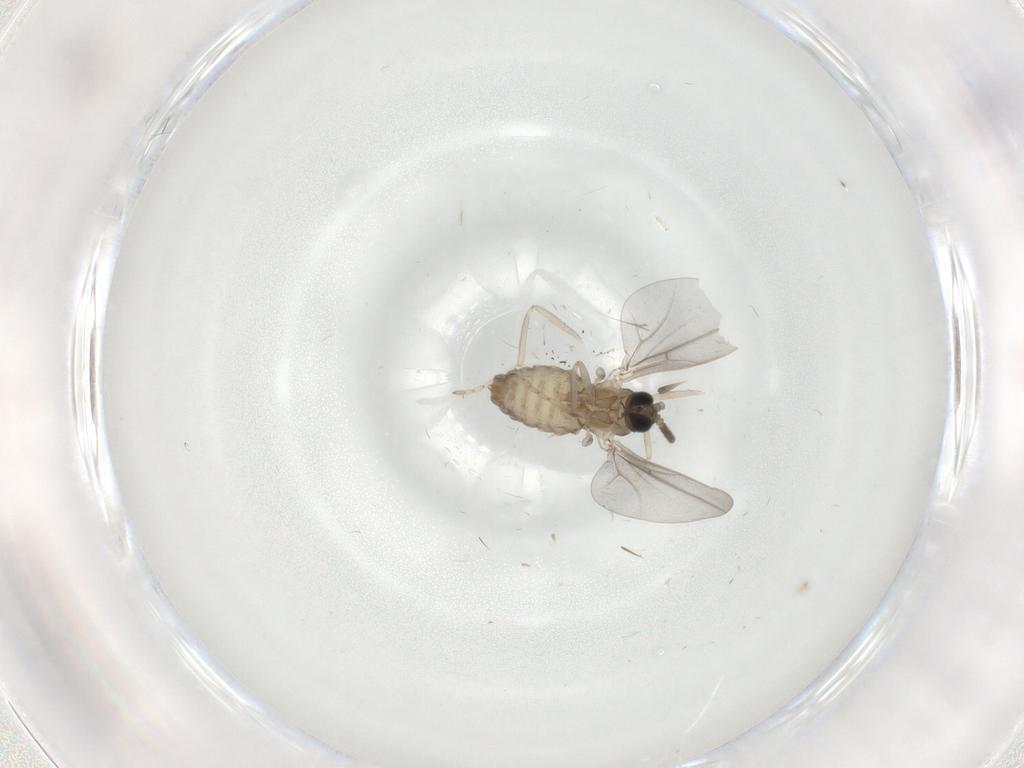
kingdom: Animalia
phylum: Arthropoda
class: Insecta
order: Diptera
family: Cecidomyiidae
